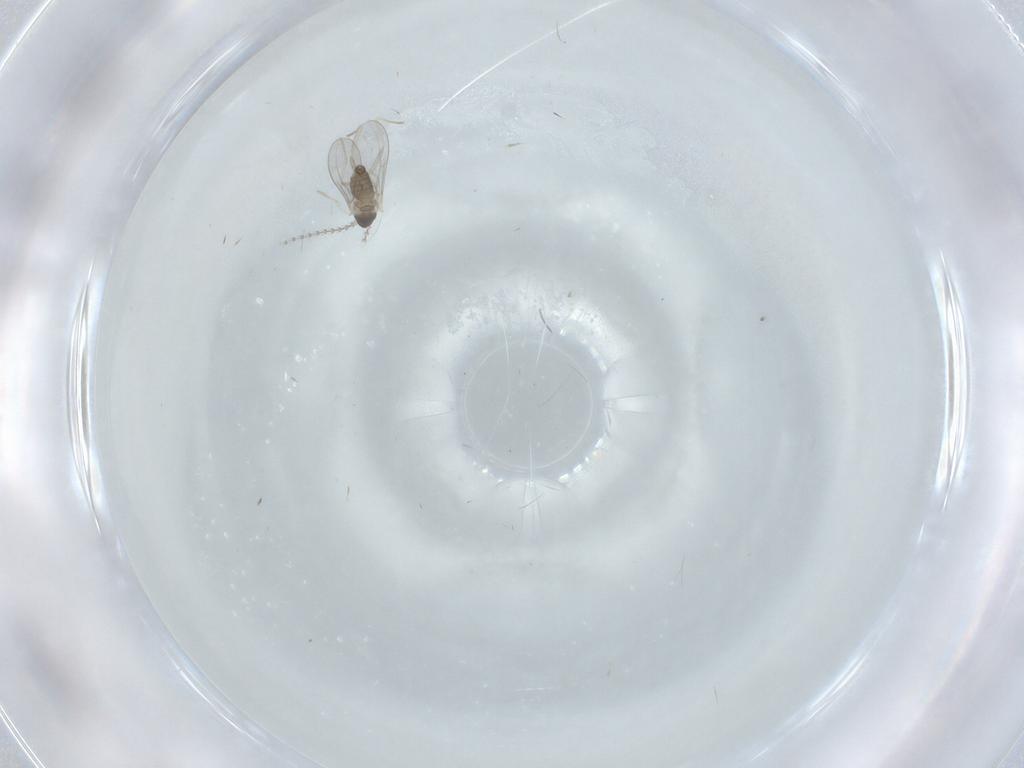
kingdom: Animalia
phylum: Arthropoda
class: Insecta
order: Diptera
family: Cecidomyiidae
